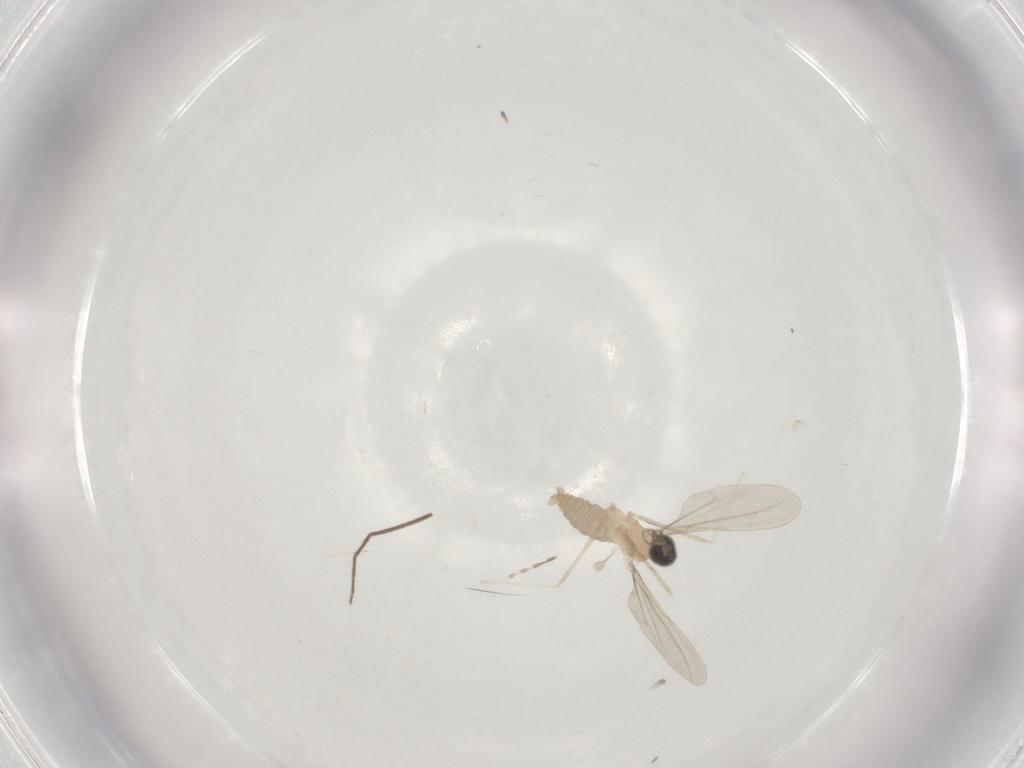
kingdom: Animalia
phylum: Arthropoda
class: Insecta
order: Diptera
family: Cecidomyiidae
